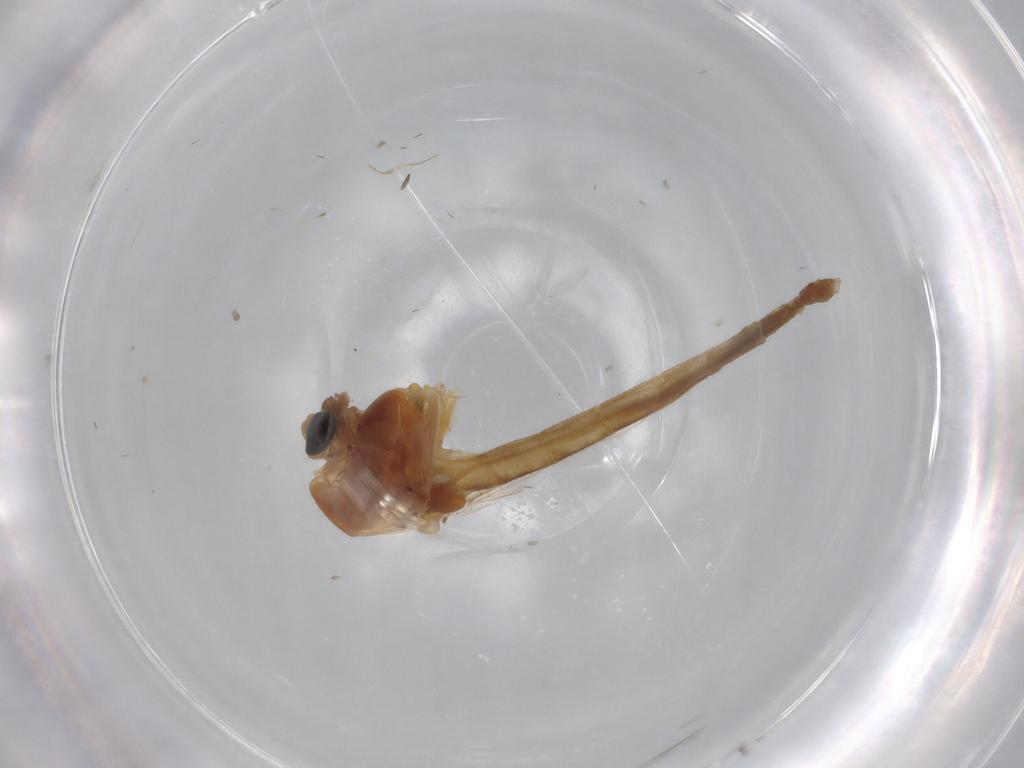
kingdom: Animalia
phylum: Arthropoda
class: Insecta
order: Diptera
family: Chironomidae
